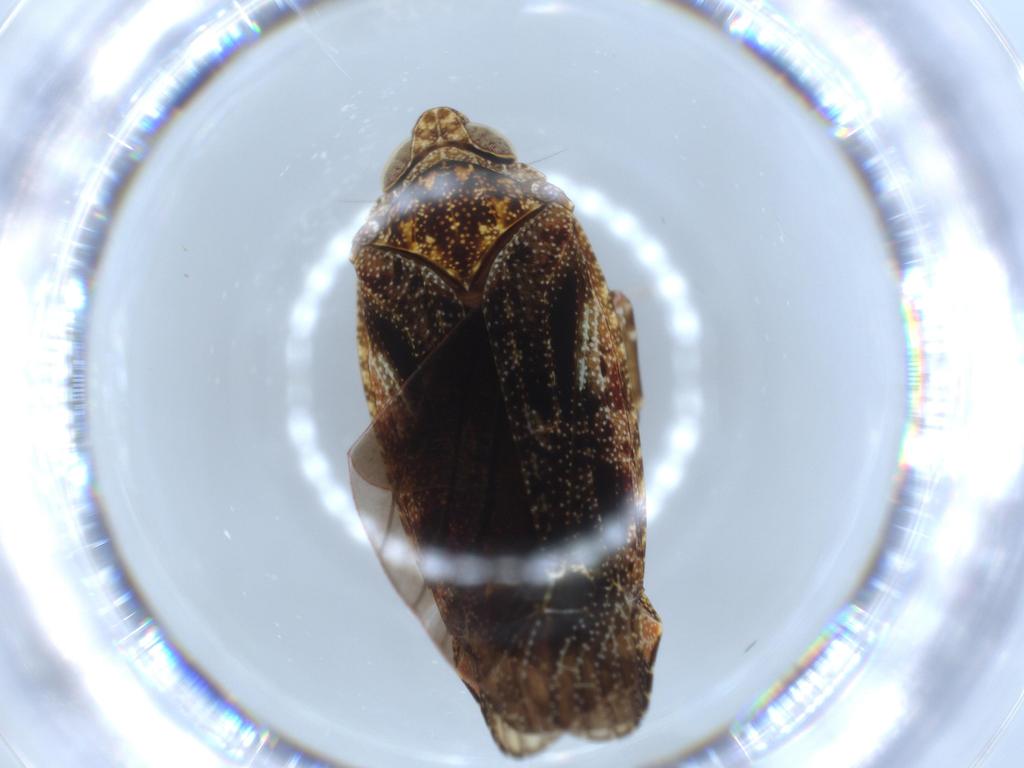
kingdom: Animalia
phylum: Arthropoda
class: Insecta
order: Hemiptera
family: Achilidae
